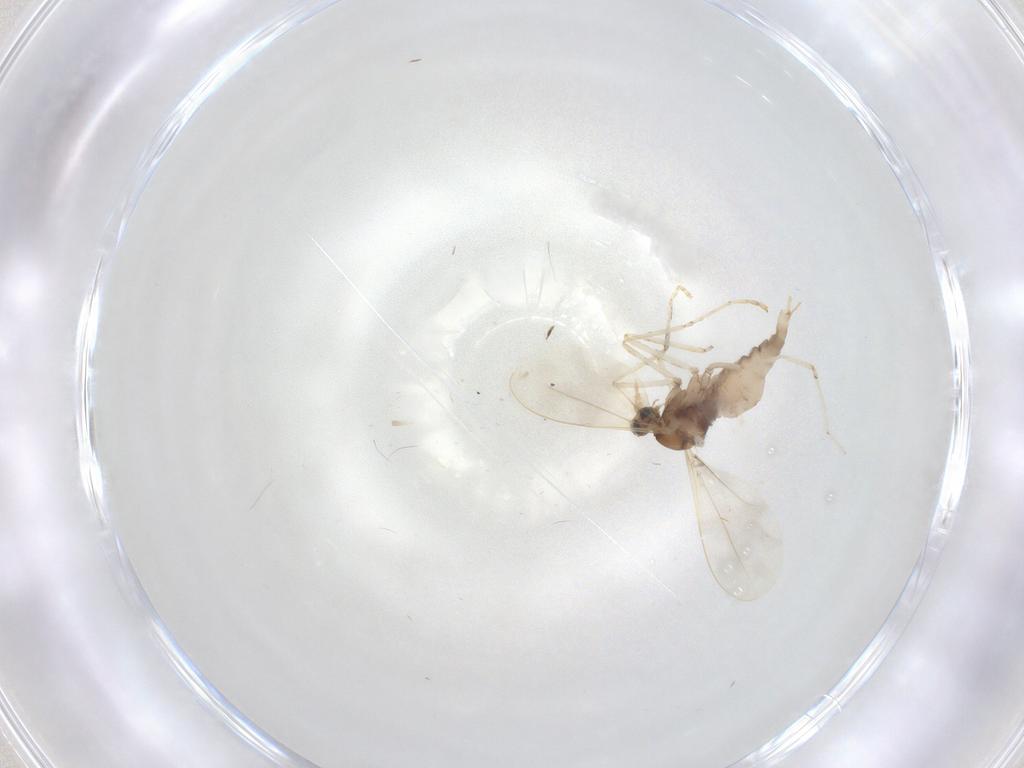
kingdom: Animalia
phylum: Arthropoda
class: Insecta
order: Diptera
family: Cecidomyiidae
